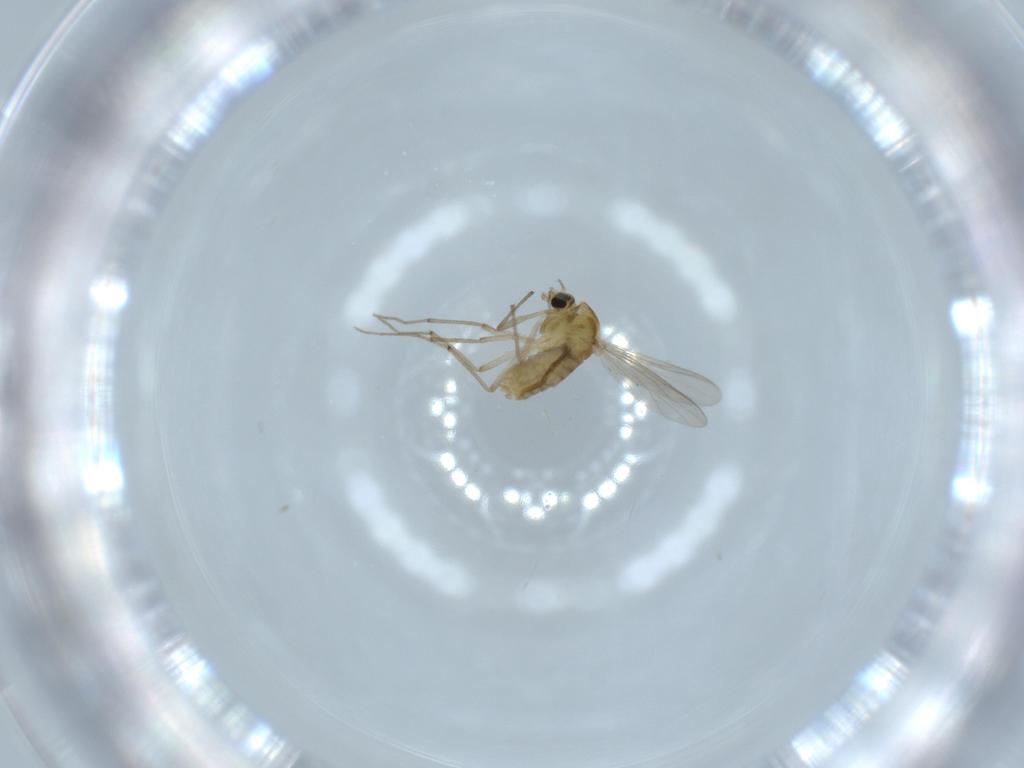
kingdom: Animalia
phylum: Arthropoda
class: Insecta
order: Diptera
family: Chironomidae
